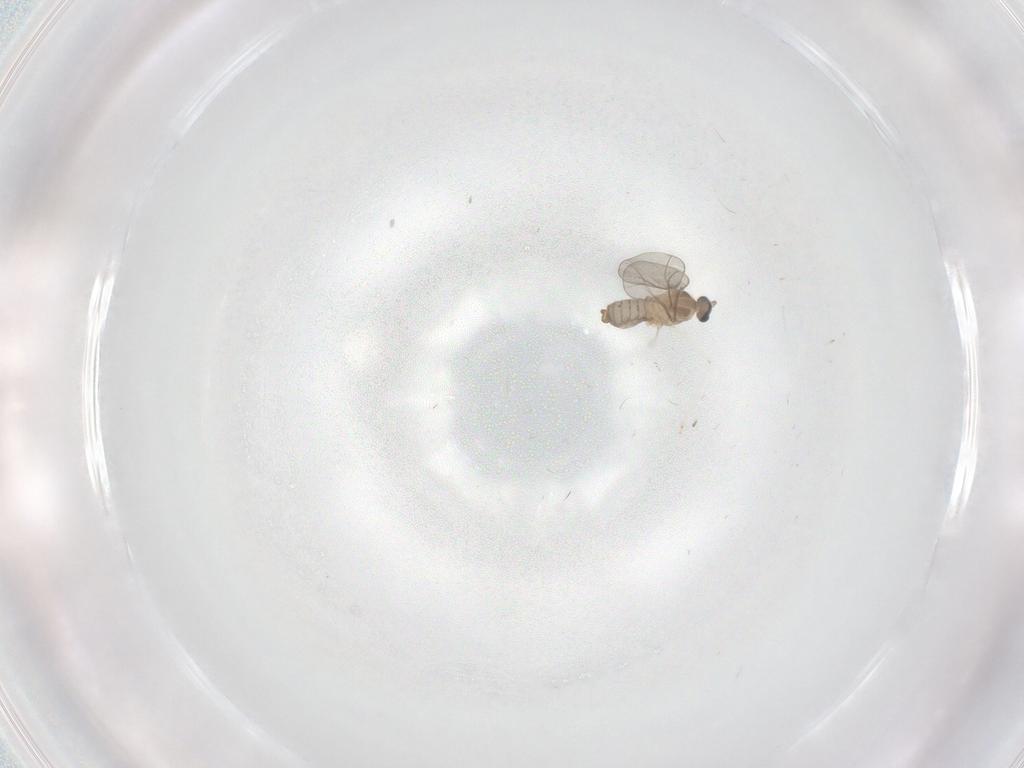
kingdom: Animalia
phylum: Arthropoda
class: Insecta
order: Diptera
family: Cecidomyiidae
